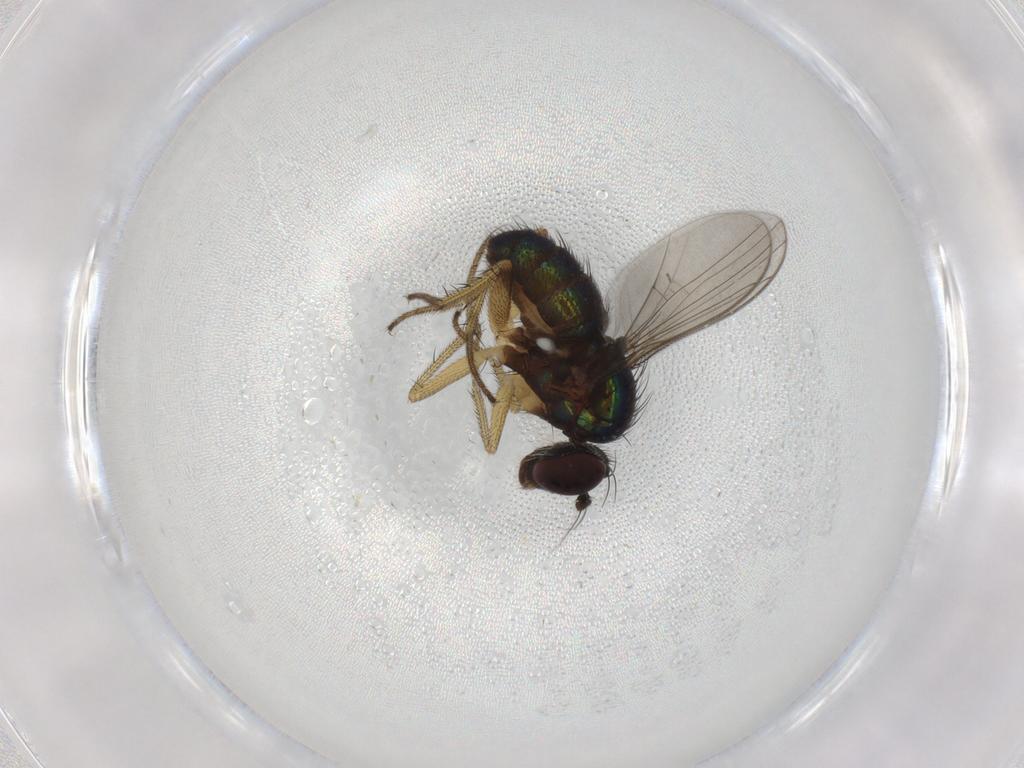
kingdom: Animalia
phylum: Arthropoda
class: Insecta
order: Diptera
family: Dolichopodidae
